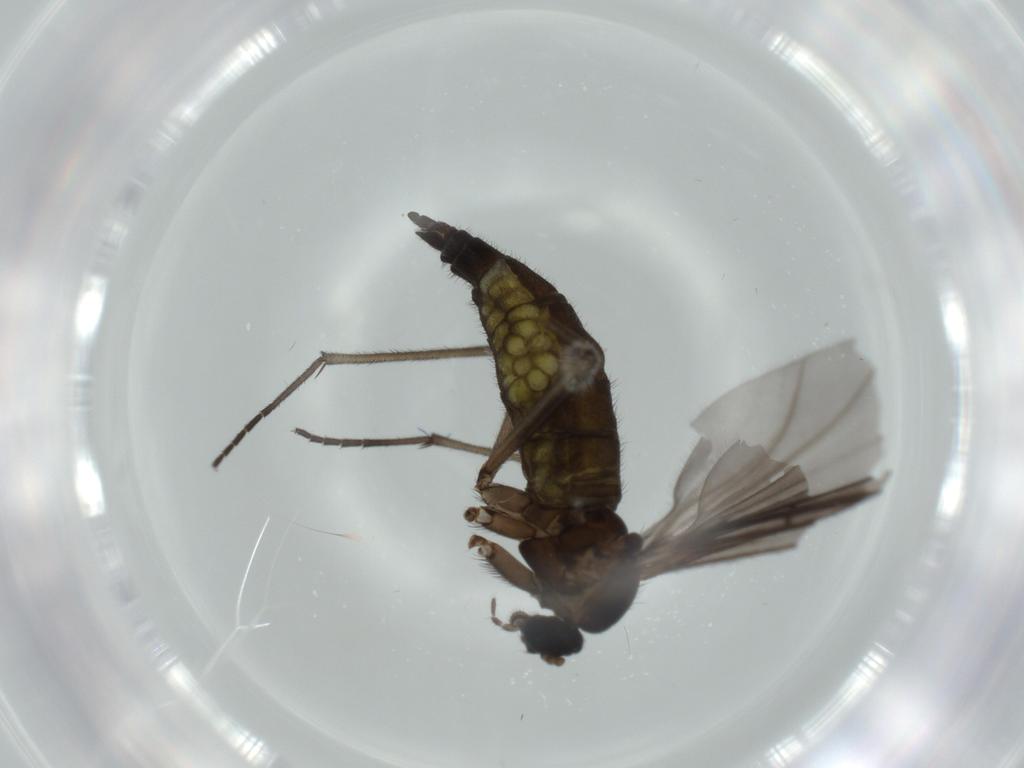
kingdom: Animalia
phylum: Arthropoda
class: Insecta
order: Diptera
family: Sciaridae
